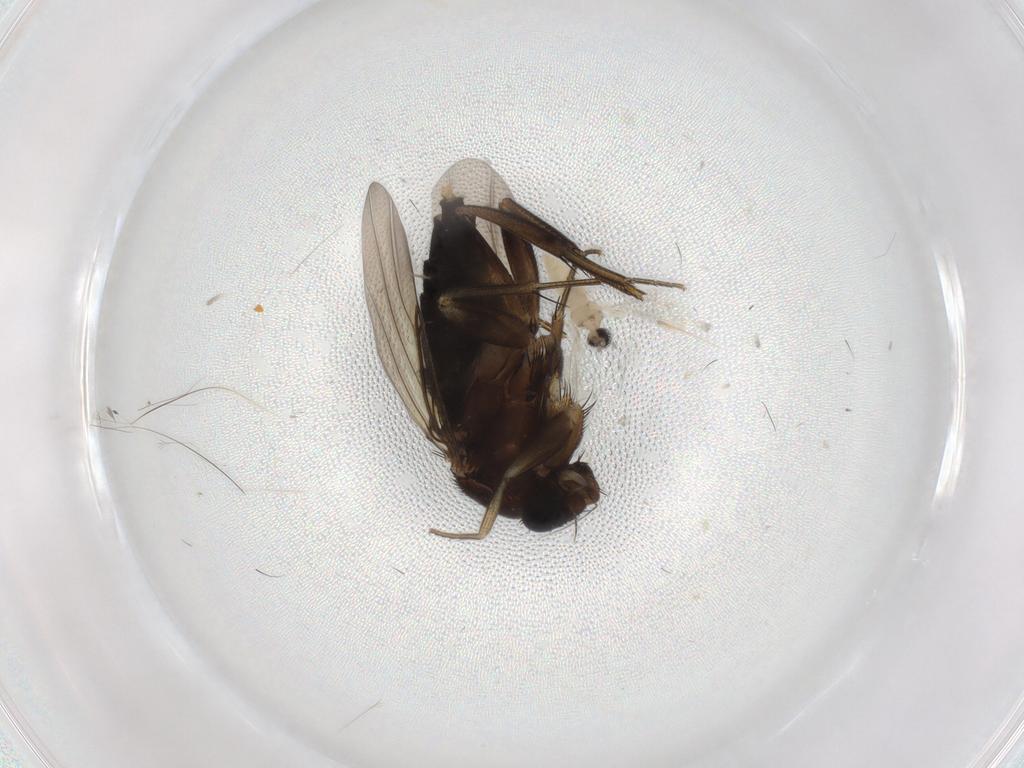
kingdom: Animalia
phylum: Arthropoda
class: Insecta
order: Diptera
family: Phoridae
